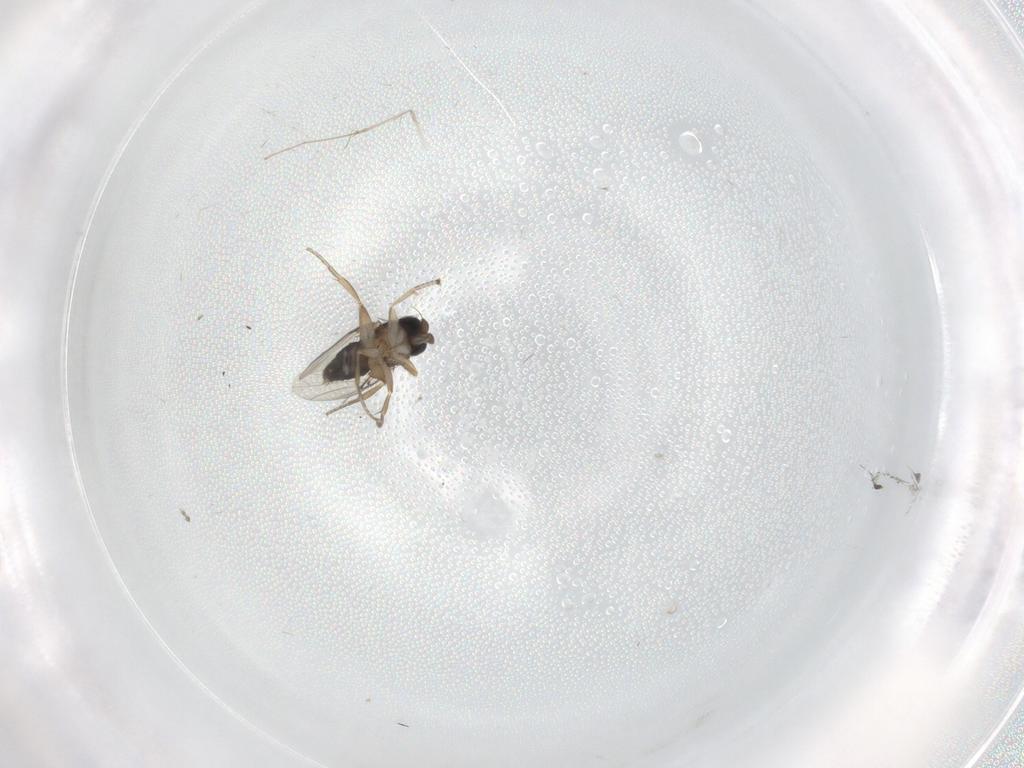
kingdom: Animalia
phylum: Arthropoda
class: Insecta
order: Diptera
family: Phoridae
